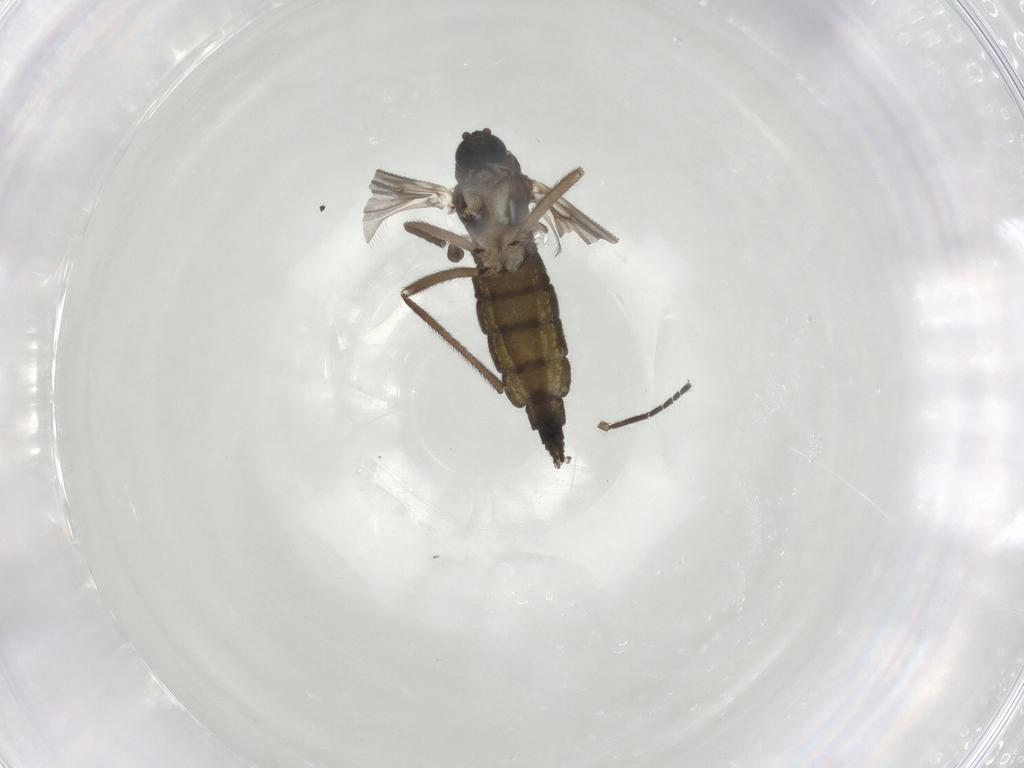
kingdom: Animalia
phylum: Arthropoda
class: Insecta
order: Diptera
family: Sciaridae
